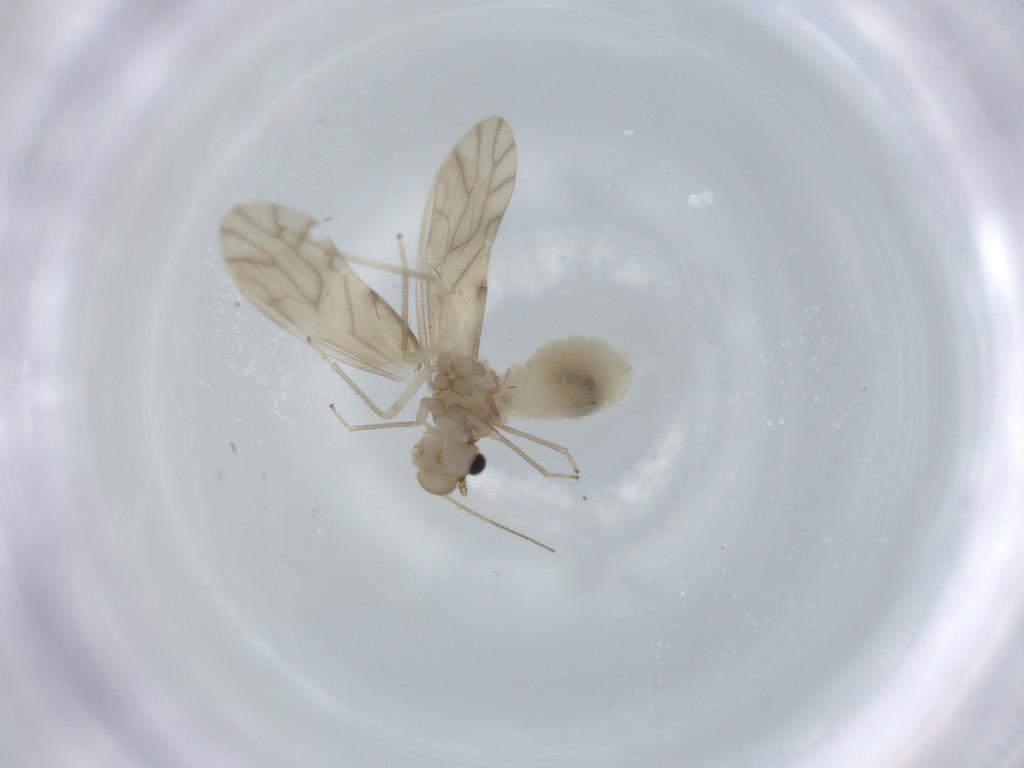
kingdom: Animalia
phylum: Arthropoda
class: Insecta
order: Psocodea
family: Caeciliusidae
